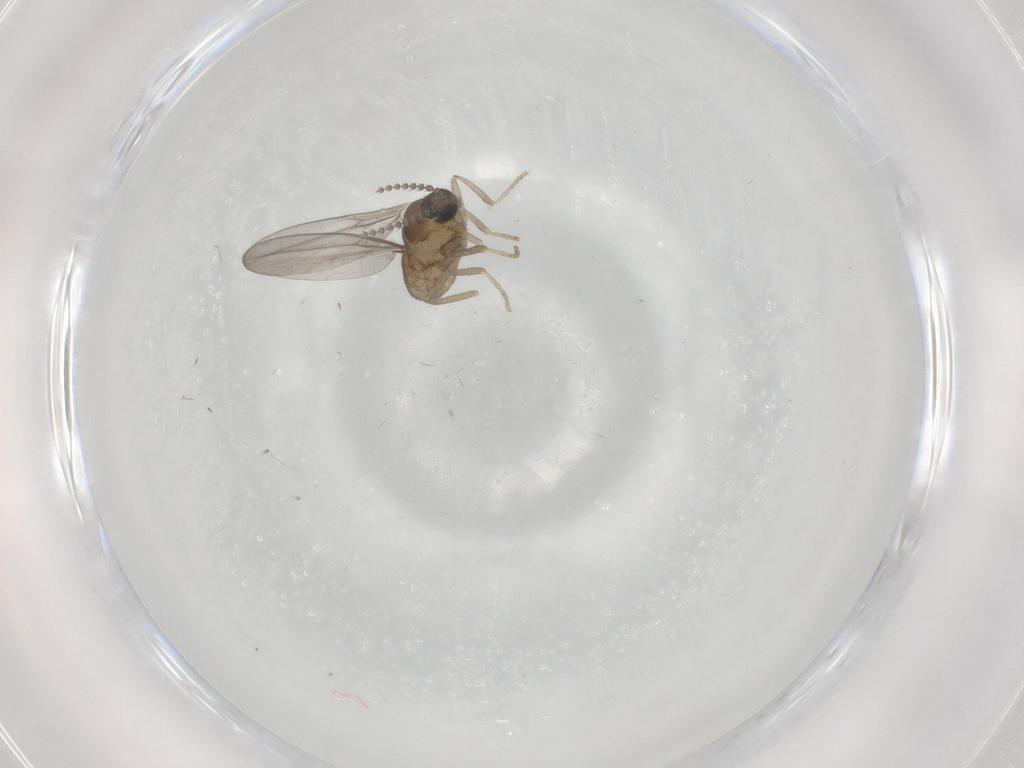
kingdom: Animalia
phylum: Arthropoda
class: Insecta
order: Diptera
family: Cecidomyiidae
